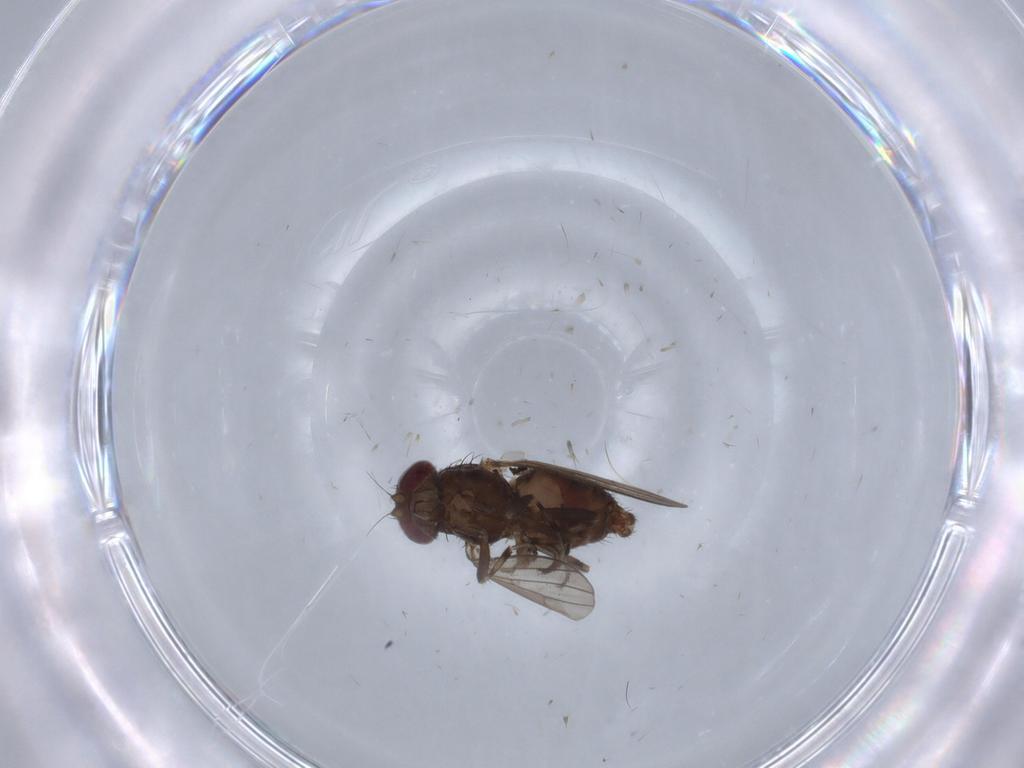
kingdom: Animalia
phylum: Arthropoda
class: Insecta
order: Diptera
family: Heleomyzidae
